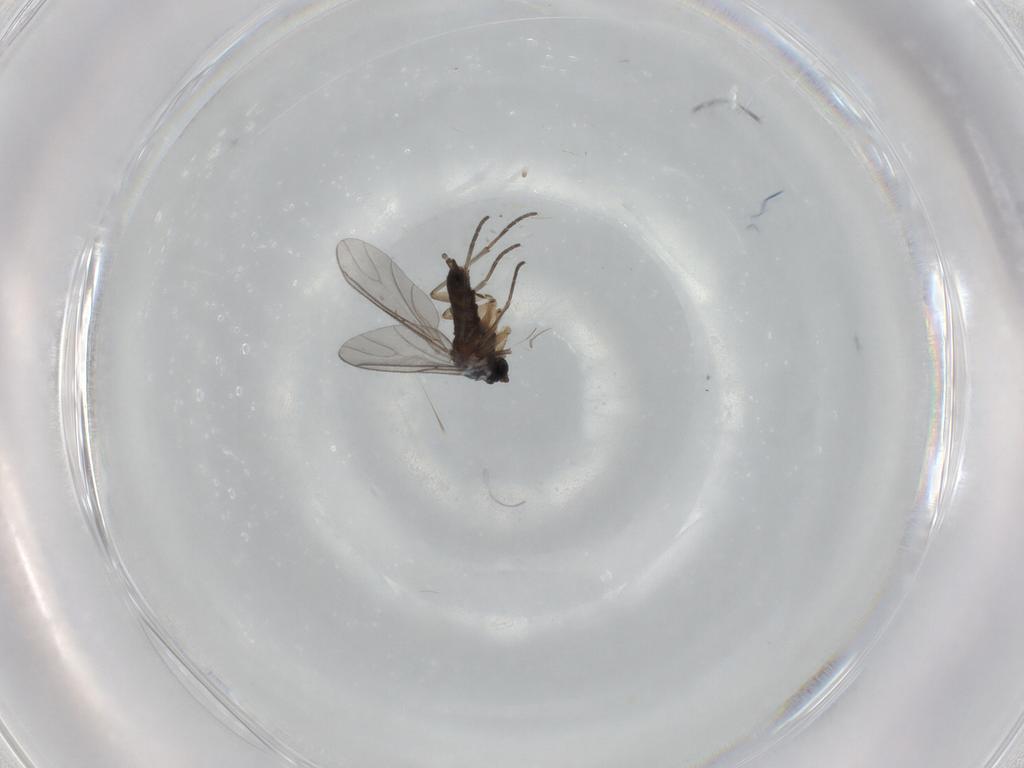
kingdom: Animalia
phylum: Arthropoda
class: Insecta
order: Diptera
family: Sciaridae
